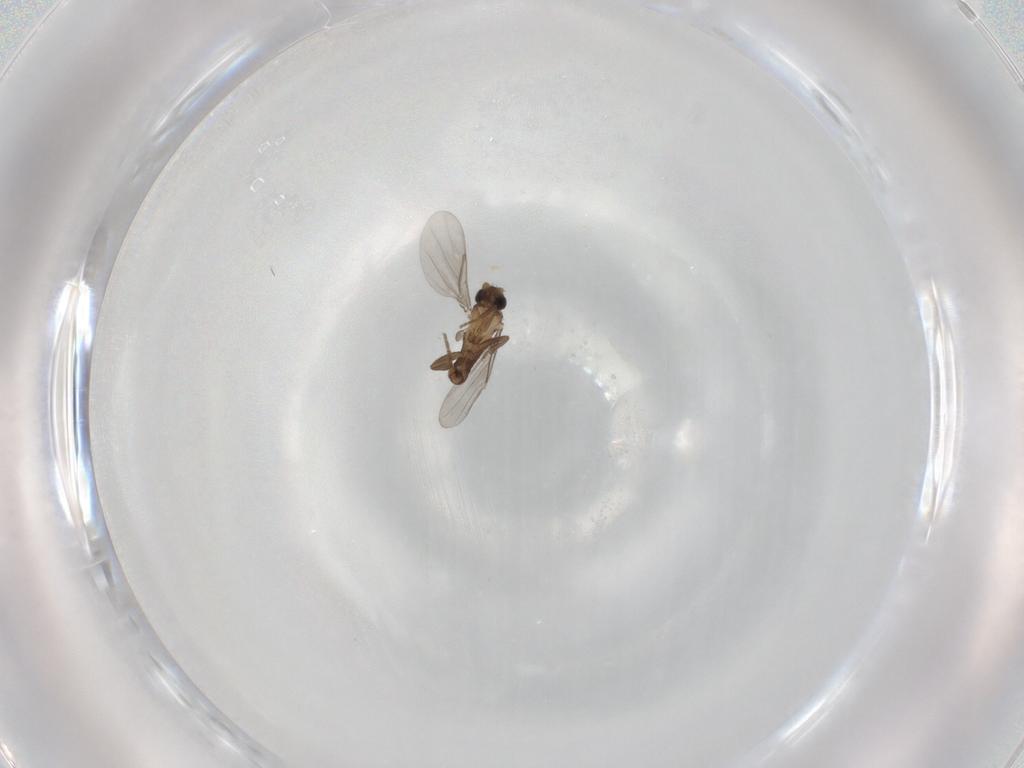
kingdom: Animalia
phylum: Arthropoda
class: Insecta
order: Diptera
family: Phoridae
